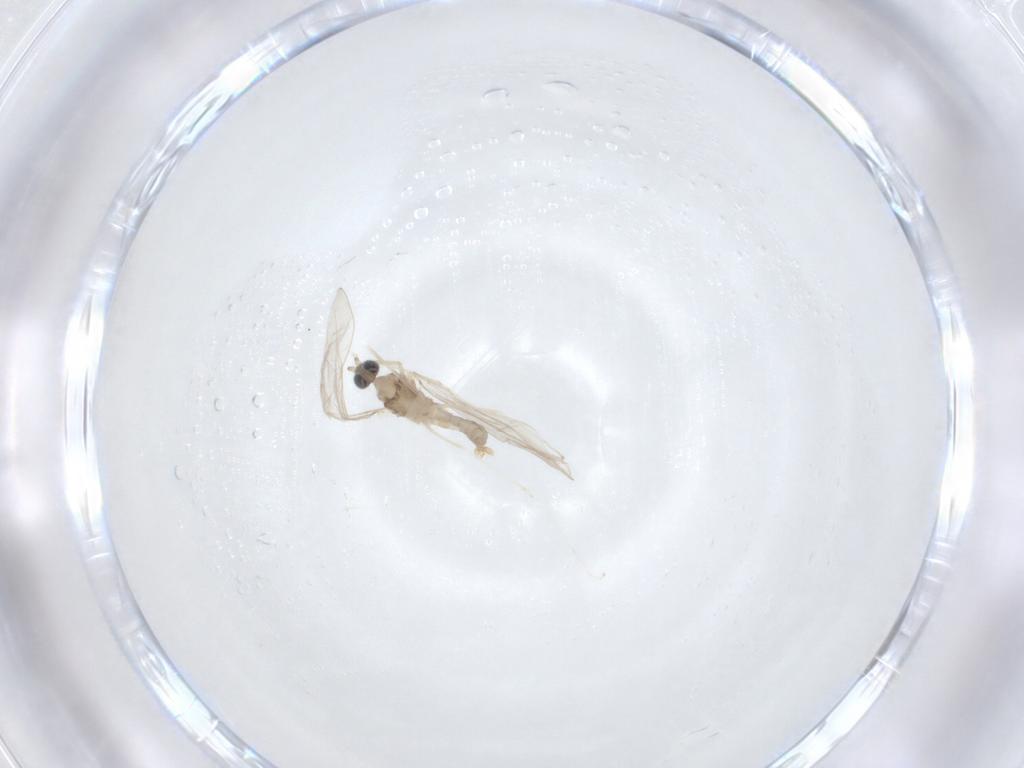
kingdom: Animalia
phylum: Arthropoda
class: Insecta
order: Diptera
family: Cecidomyiidae
